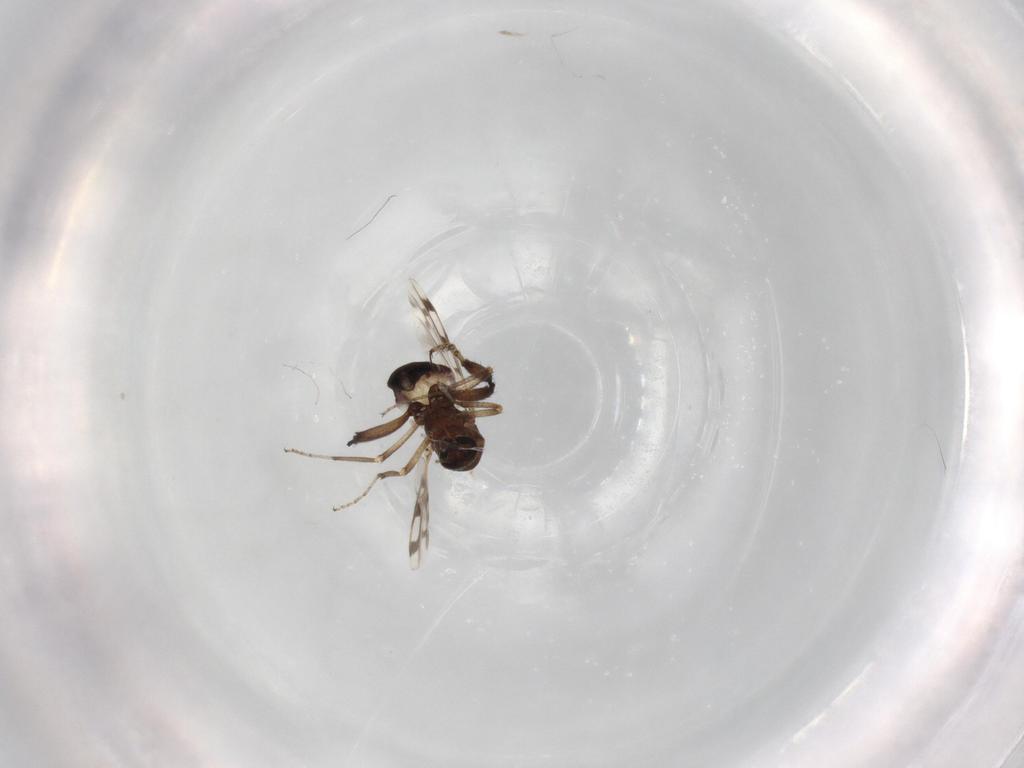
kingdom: Animalia
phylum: Arthropoda
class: Insecta
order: Diptera
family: Ceratopogonidae
